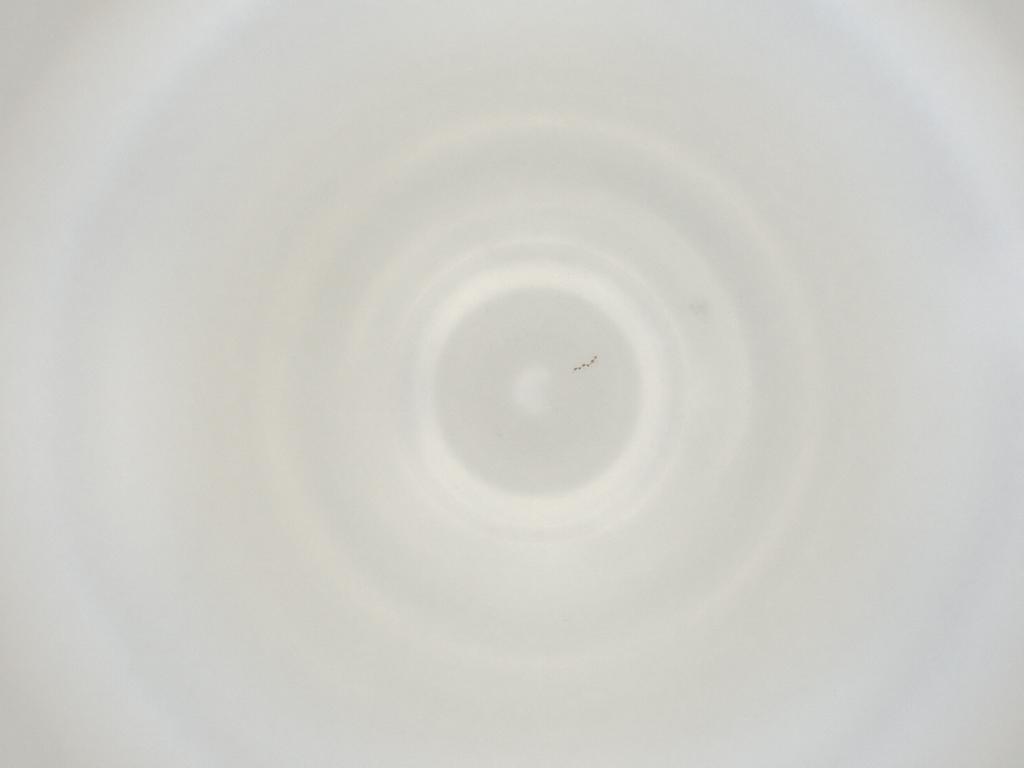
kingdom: Animalia
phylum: Arthropoda
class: Insecta
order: Diptera
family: Cecidomyiidae
